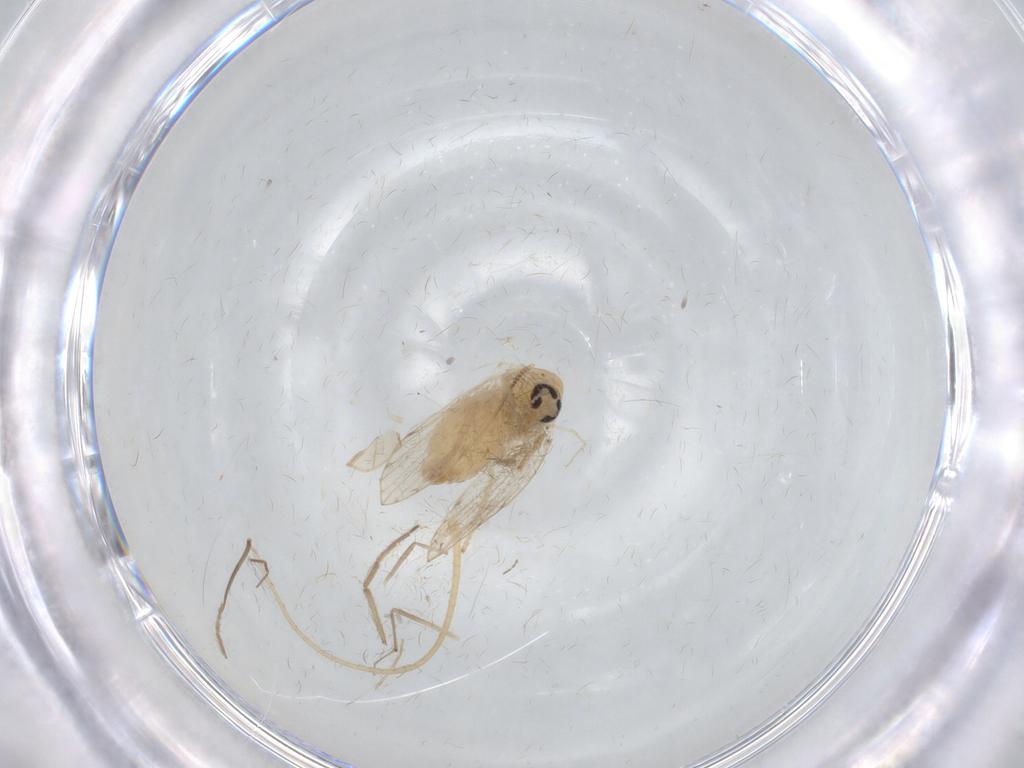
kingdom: Animalia
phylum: Arthropoda
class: Insecta
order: Diptera
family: Psychodidae
